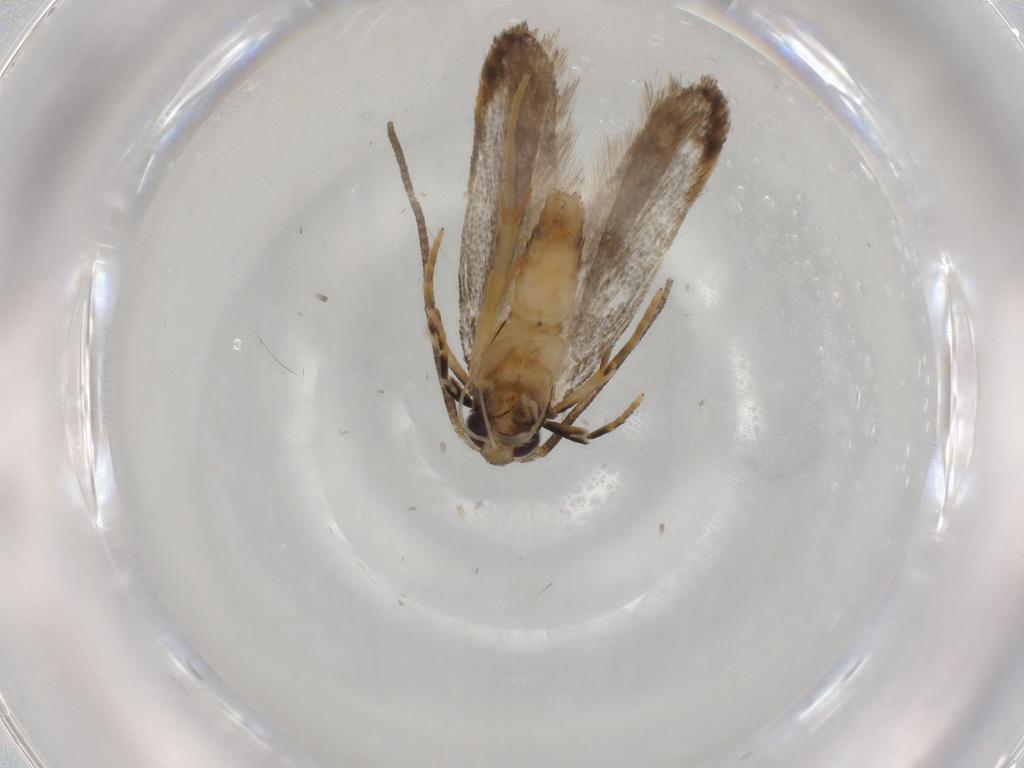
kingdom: Animalia
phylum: Arthropoda
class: Insecta
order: Lepidoptera
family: Autostichidae
